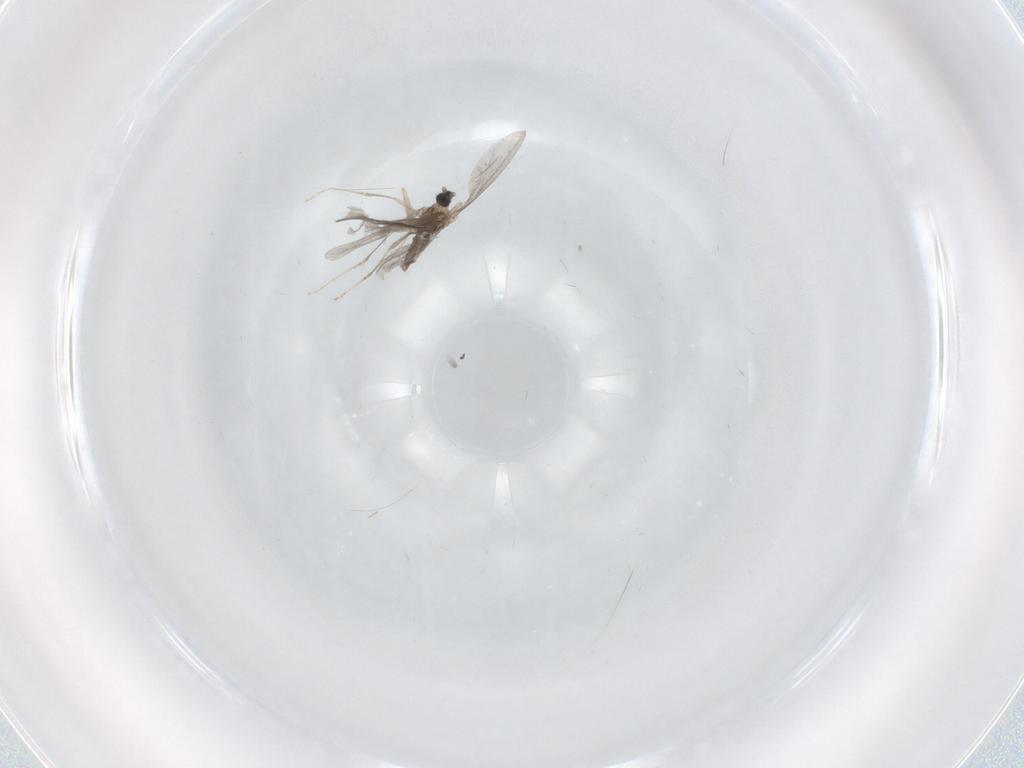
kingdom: Animalia
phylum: Arthropoda
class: Insecta
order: Diptera
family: Cecidomyiidae
